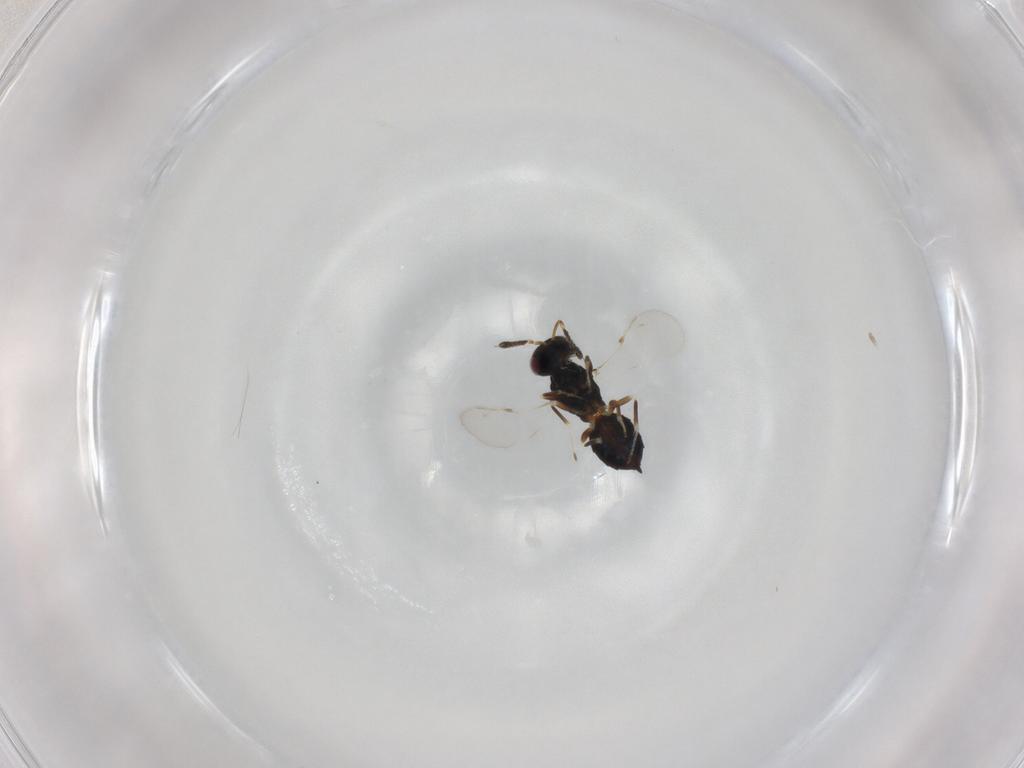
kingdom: Animalia
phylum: Arthropoda
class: Insecta
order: Hymenoptera
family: Pteromalidae
